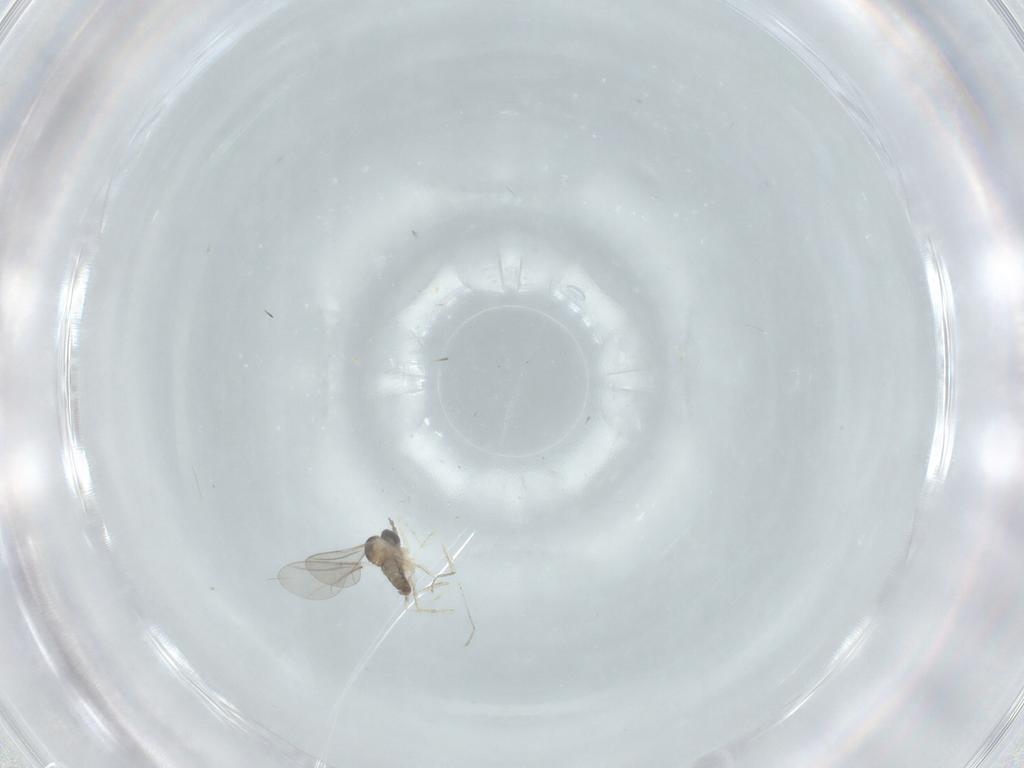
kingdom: Animalia
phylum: Arthropoda
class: Insecta
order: Diptera
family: Cecidomyiidae
